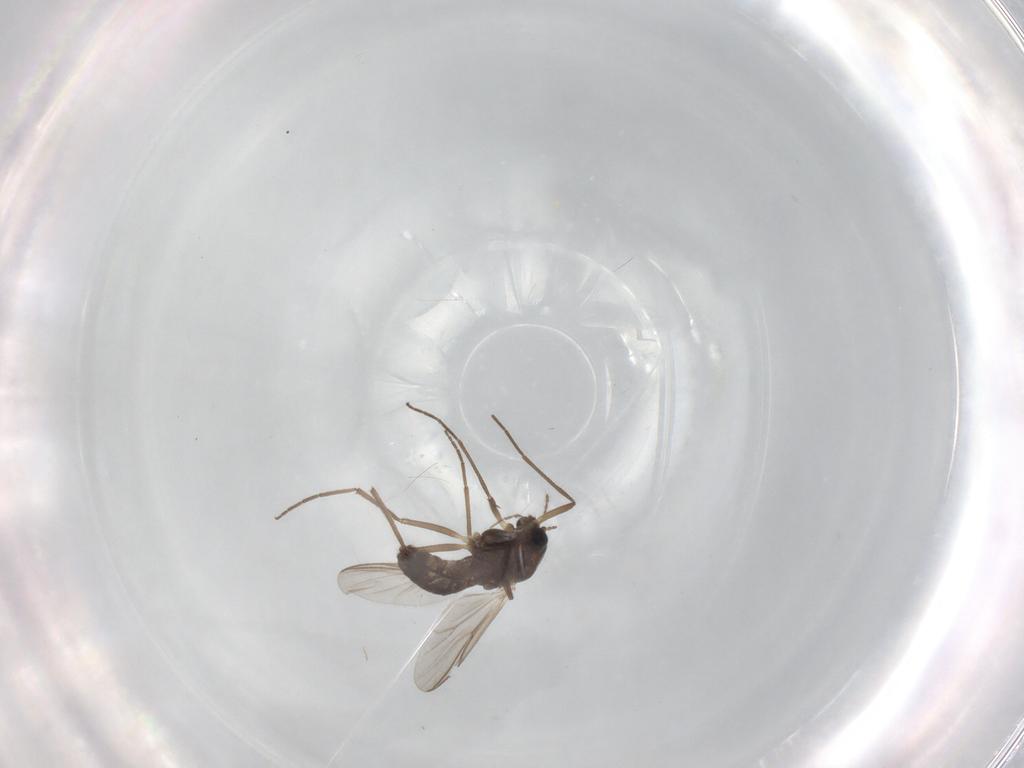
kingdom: Animalia
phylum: Arthropoda
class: Insecta
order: Diptera
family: Chironomidae
